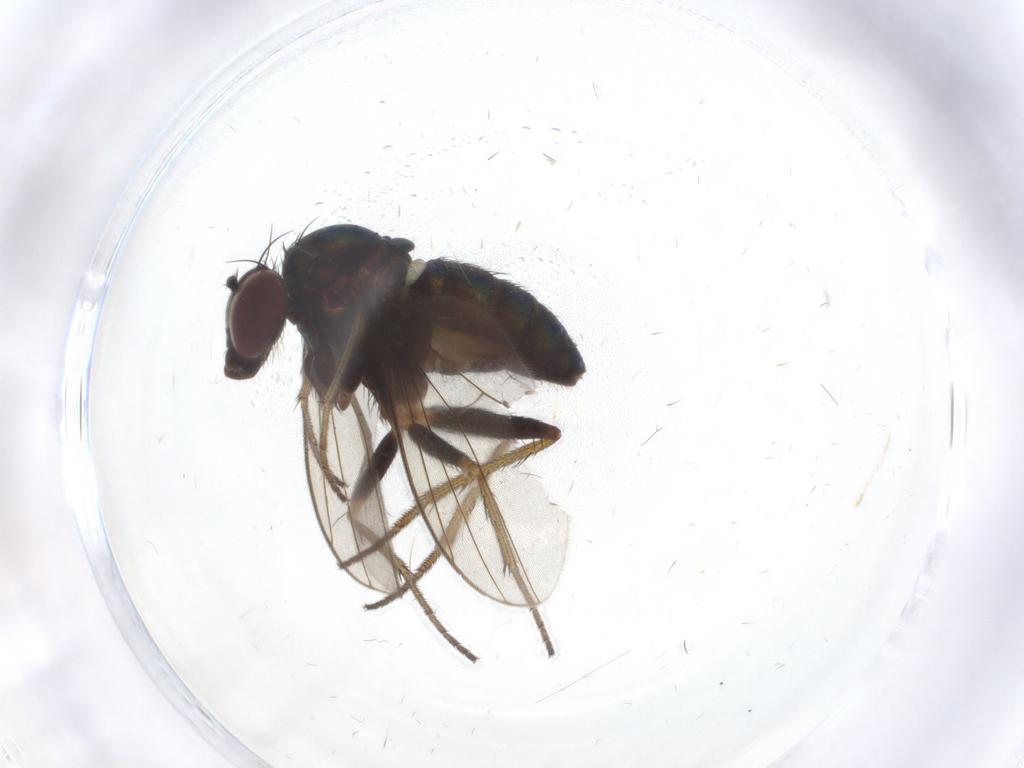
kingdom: Animalia
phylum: Arthropoda
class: Insecta
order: Diptera
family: Cecidomyiidae
